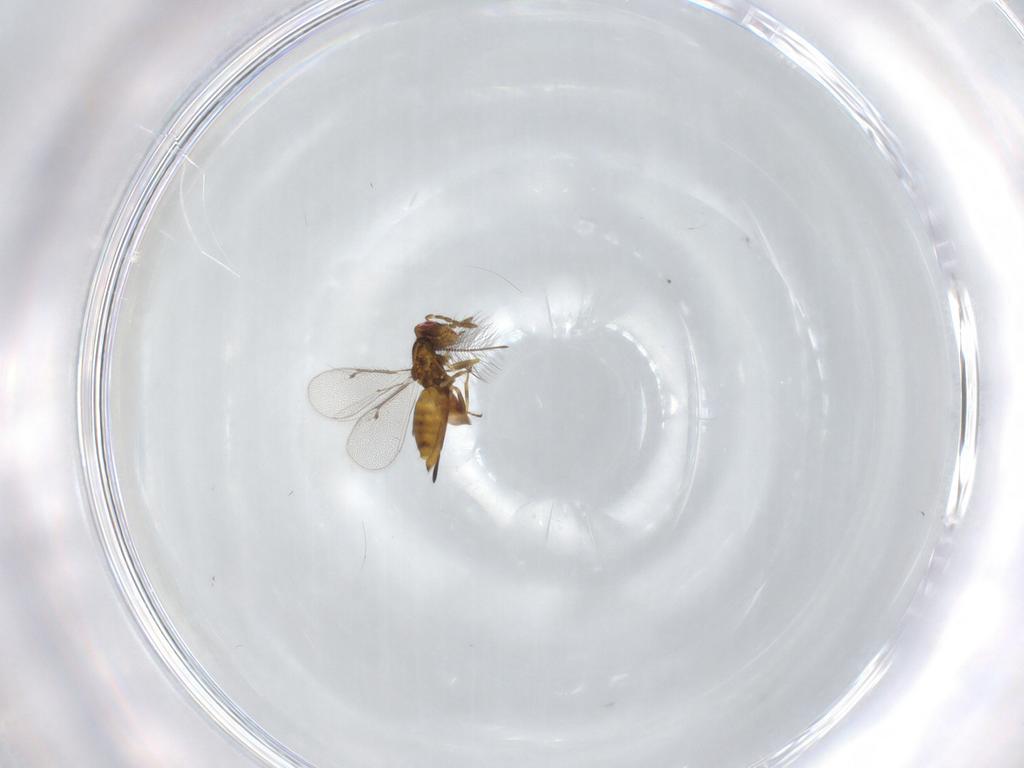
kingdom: Animalia
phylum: Arthropoda
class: Insecta
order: Hymenoptera
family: Eulophidae
